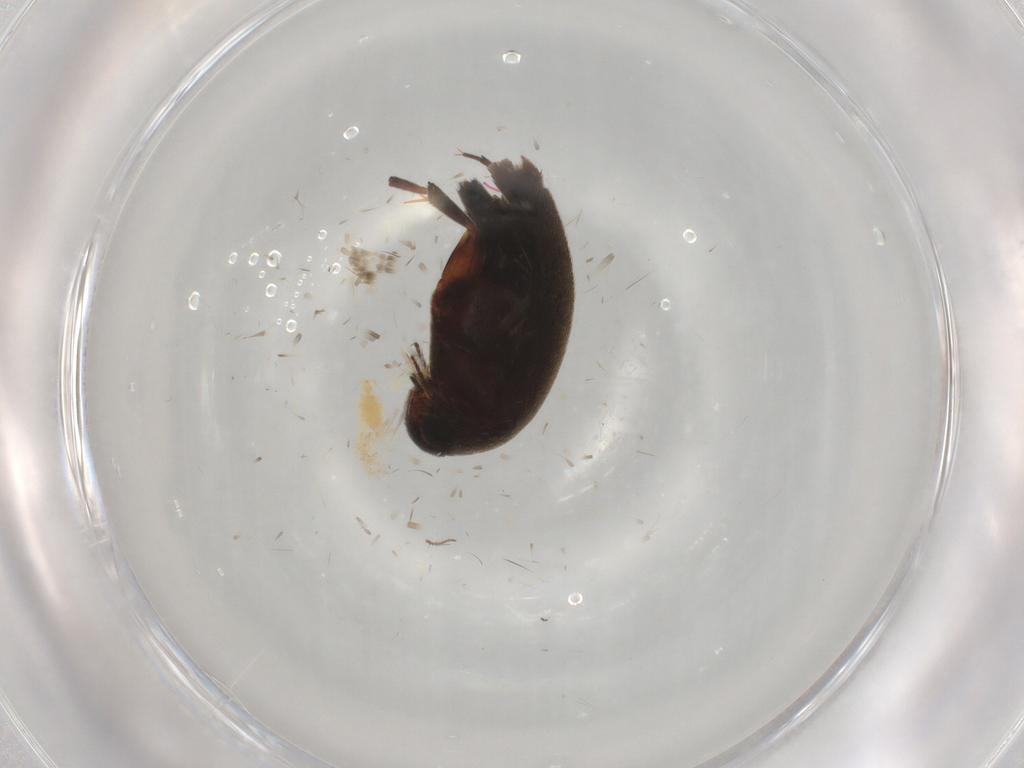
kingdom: Animalia
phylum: Arthropoda
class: Insecta
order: Coleoptera
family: Mordellidae
